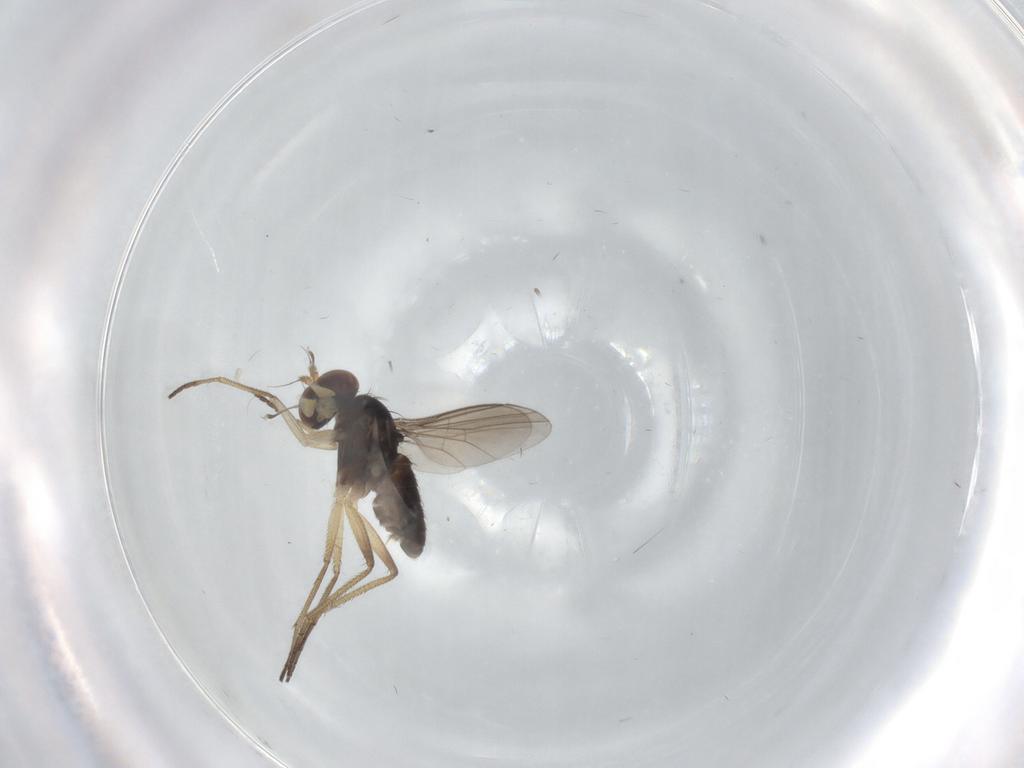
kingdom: Animalia
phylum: Arthropoda
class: Insecta
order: Diptera
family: Dolichopodidae
